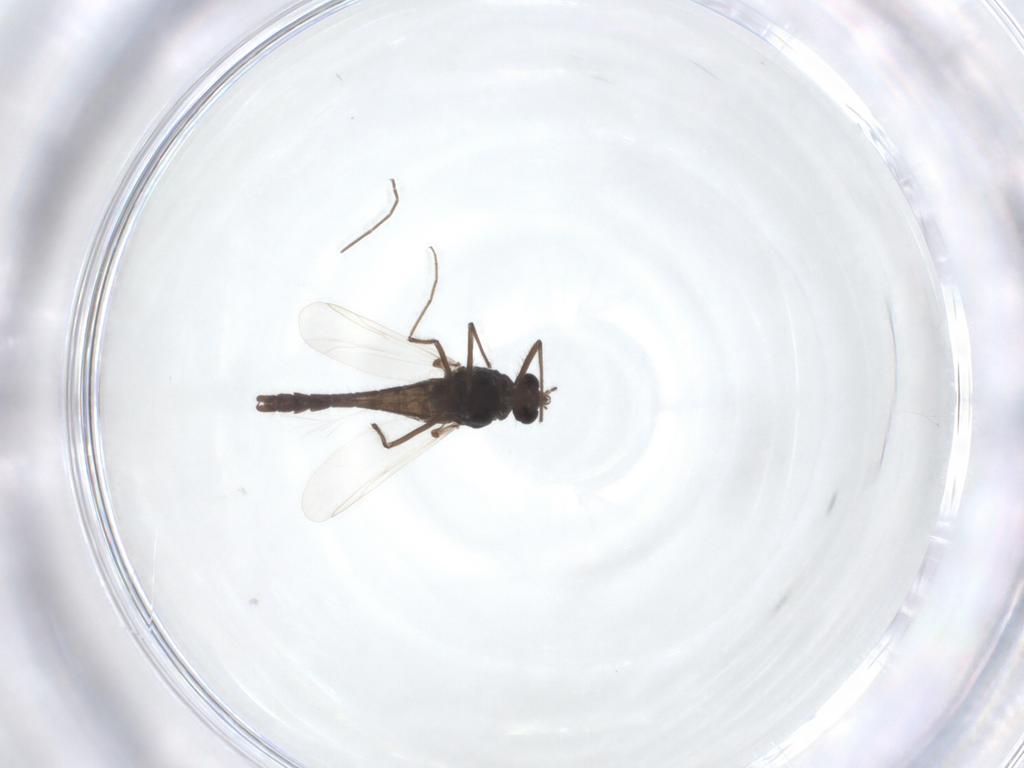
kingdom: Animalia
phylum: Arthropoda
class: Insecta
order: Diptera
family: Chironomidae
